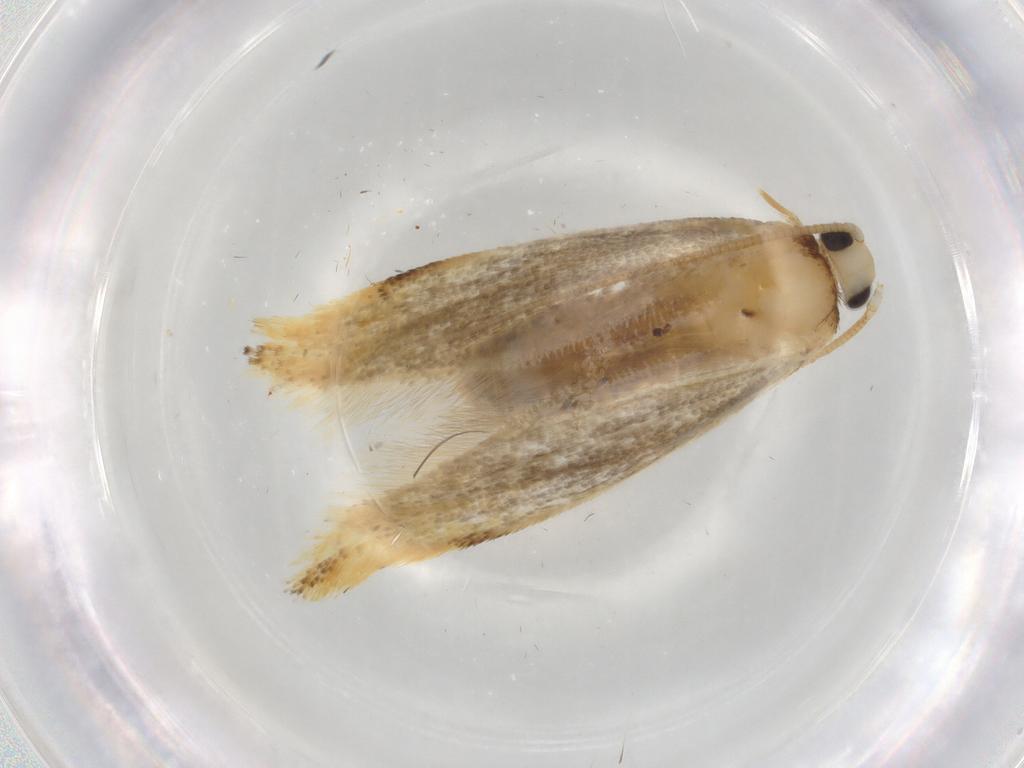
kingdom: Animalia
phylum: Arthropoda
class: Insecta
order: Lepidoptera
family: Tineidae
